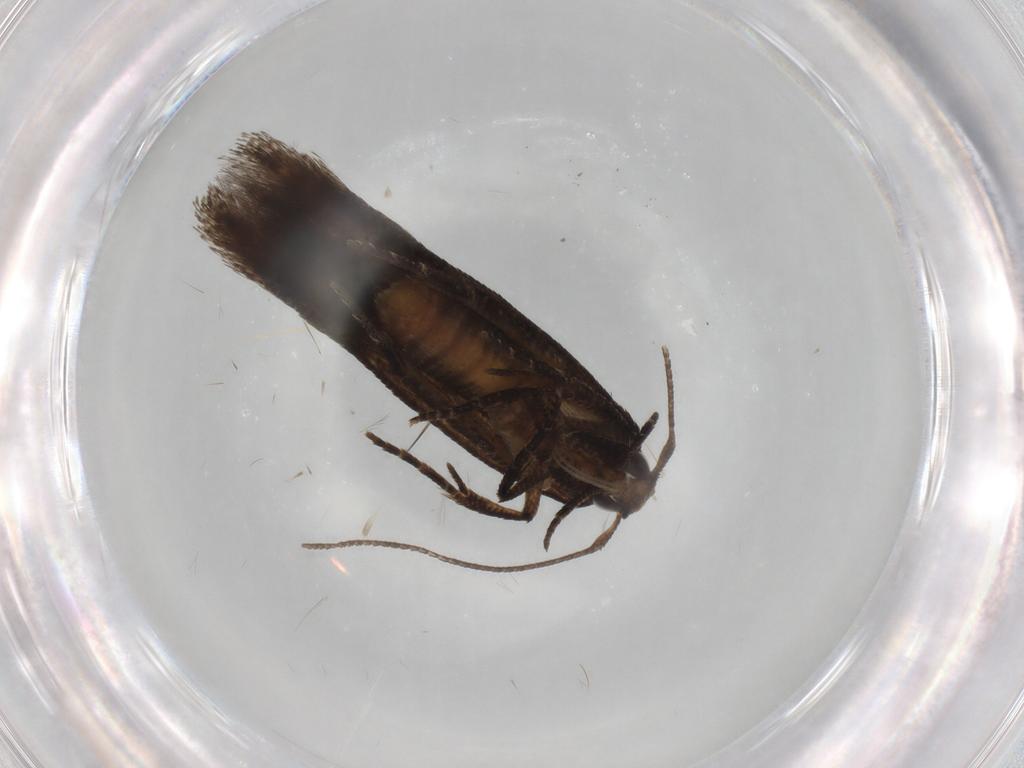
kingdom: Animalia
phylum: Arthropoda
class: Insecta
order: Lepidoptera
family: Cosmopterigidae
